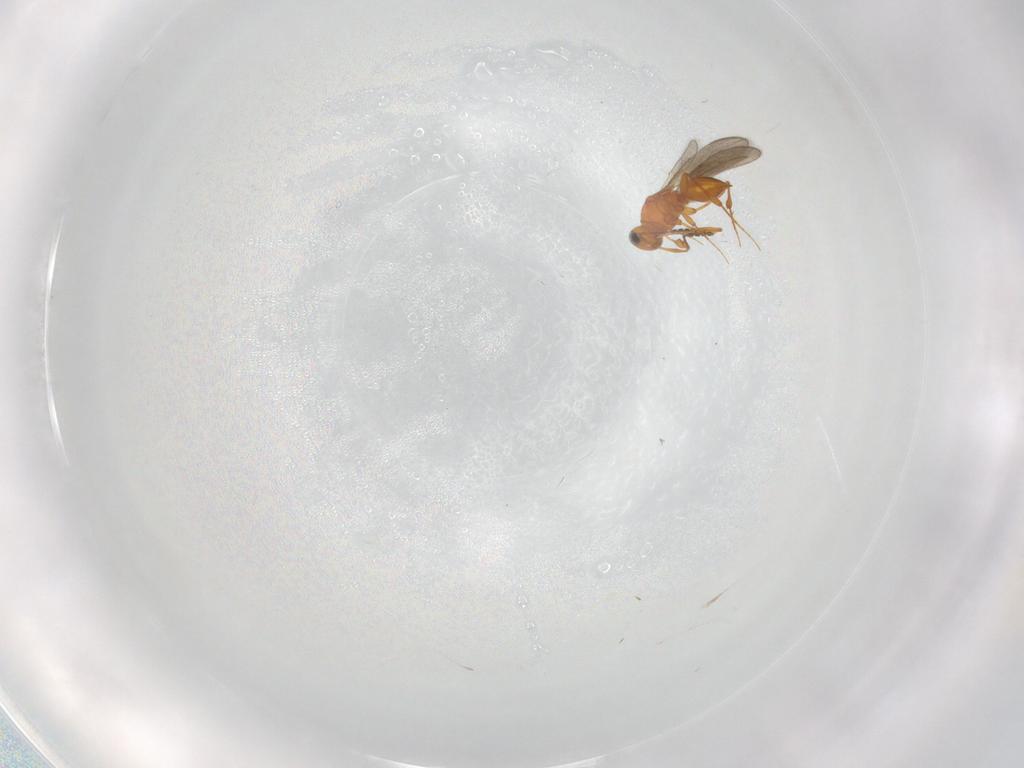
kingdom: Animalia
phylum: Arthropoda
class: Insecta
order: Hymenoptera
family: Platygastridae
